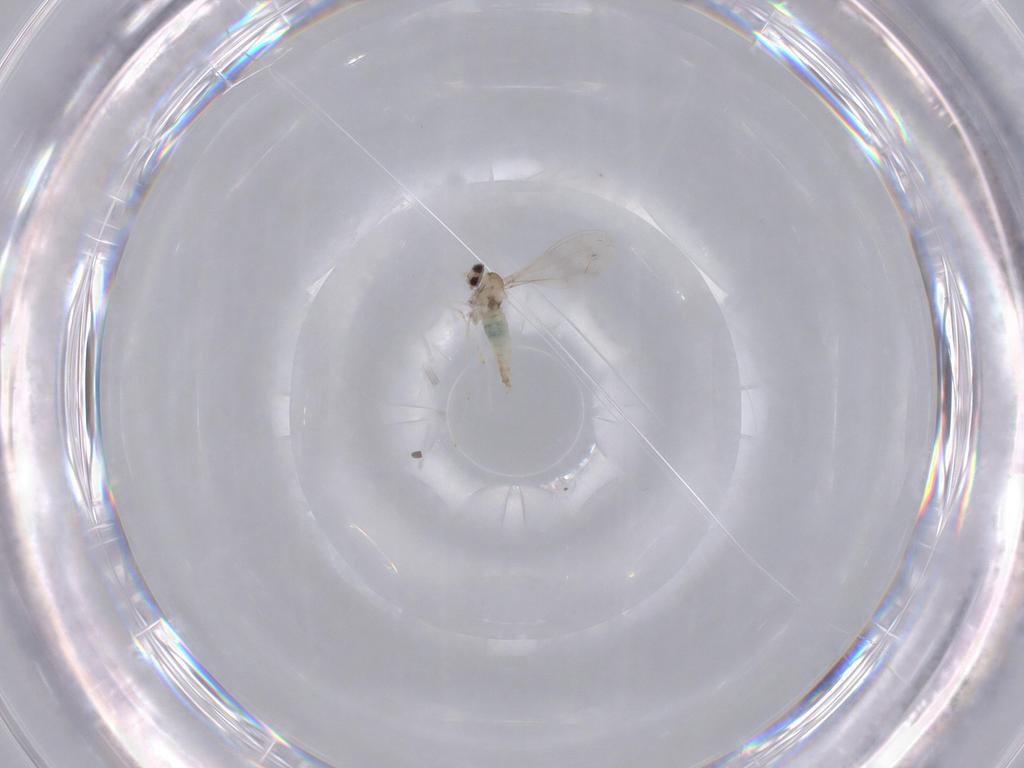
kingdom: Animalia
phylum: Arthropoda
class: Insecta
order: Diptera
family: Cecidomyiidae
